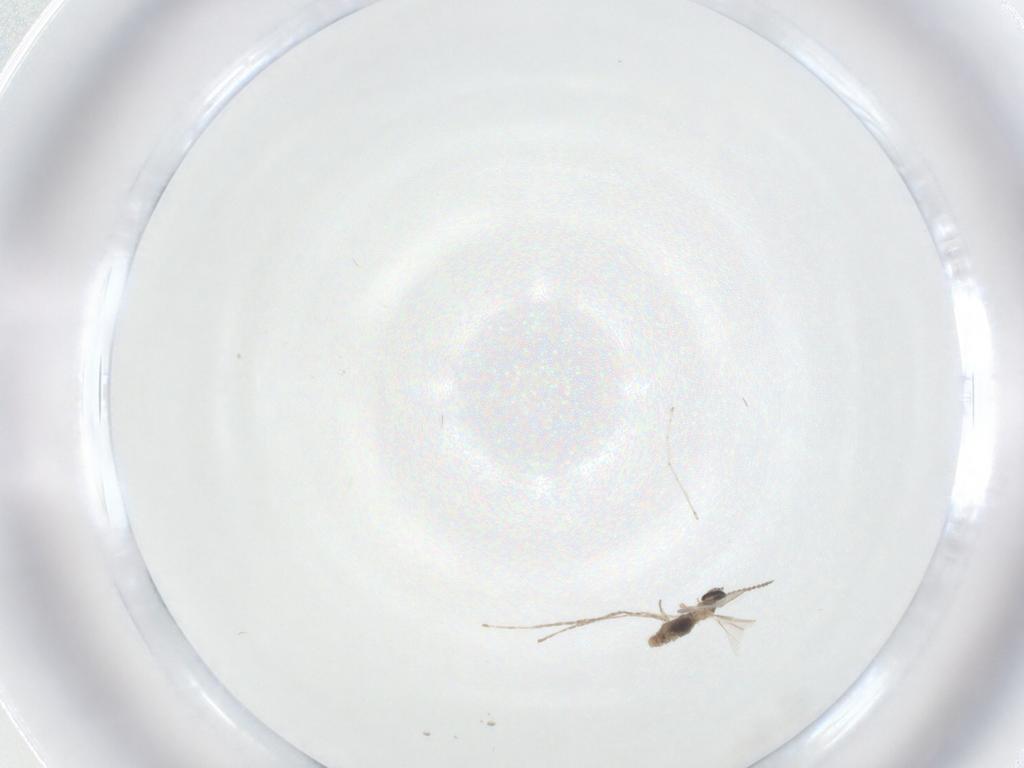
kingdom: Animalia
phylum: Arthropoda
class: Insecta
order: Diptera
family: Cecidomyiidae
